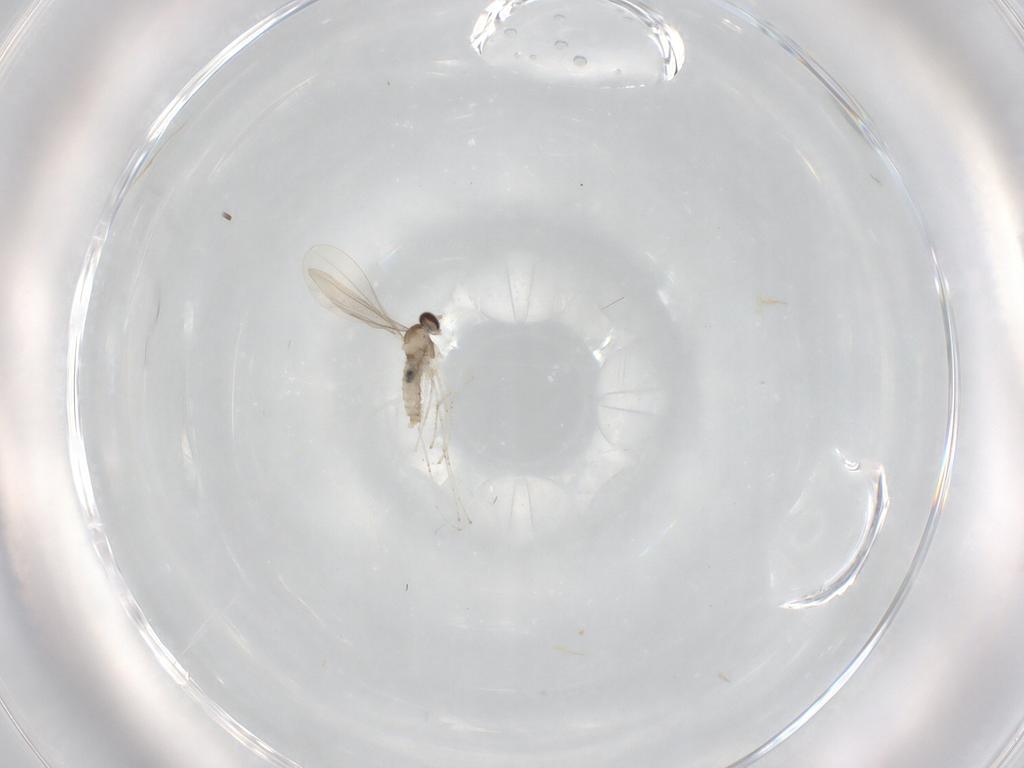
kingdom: Animalia
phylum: Arthropoda
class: Insecta
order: Diptera
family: Cecidomyiidae
